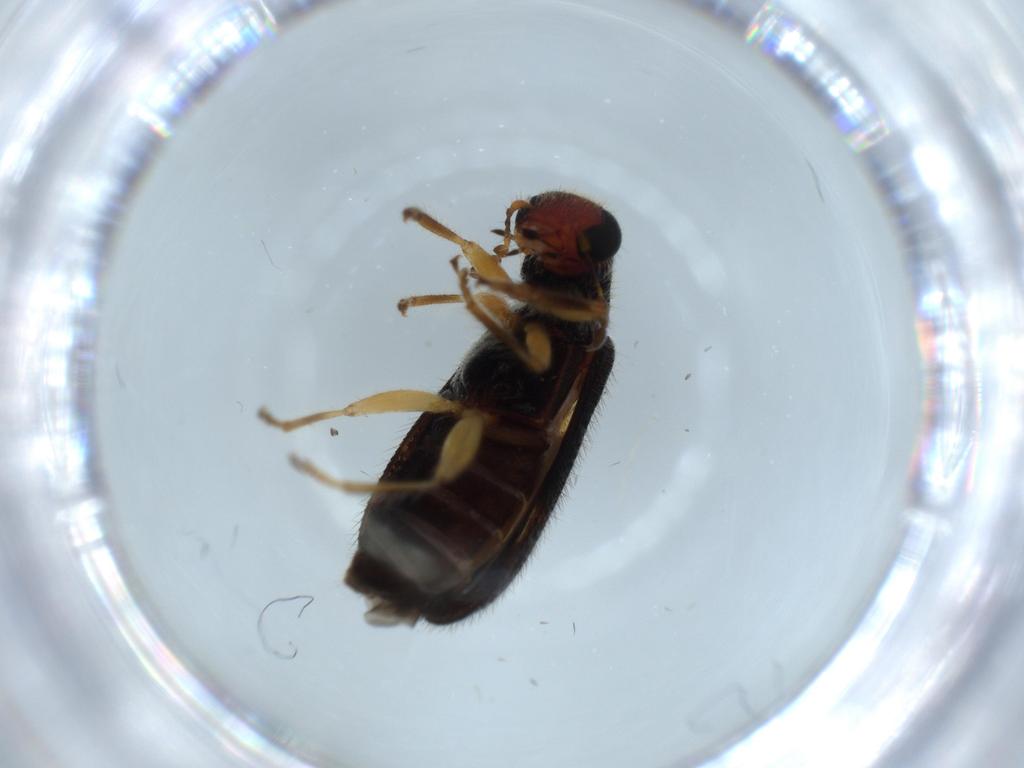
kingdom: Animalia
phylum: Arthropoda
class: Insecta
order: Coleoptera
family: Cleridae
